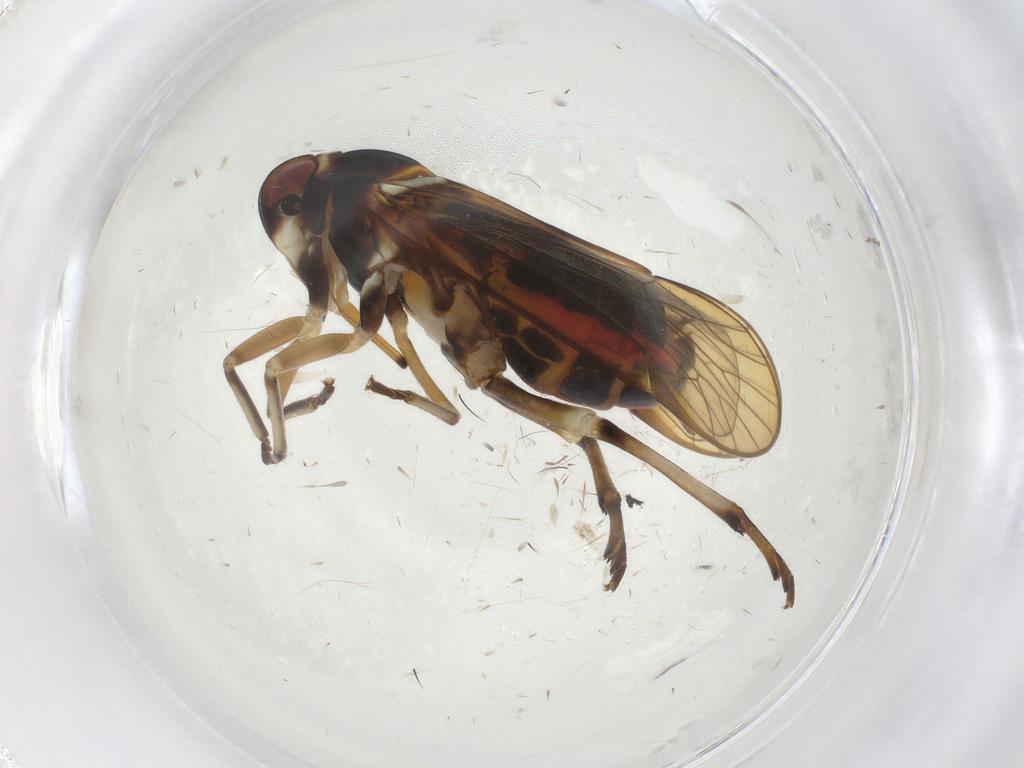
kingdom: Animalia
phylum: Arthropoda
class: Insecta
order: Hemiptera
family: Kinnaridae
